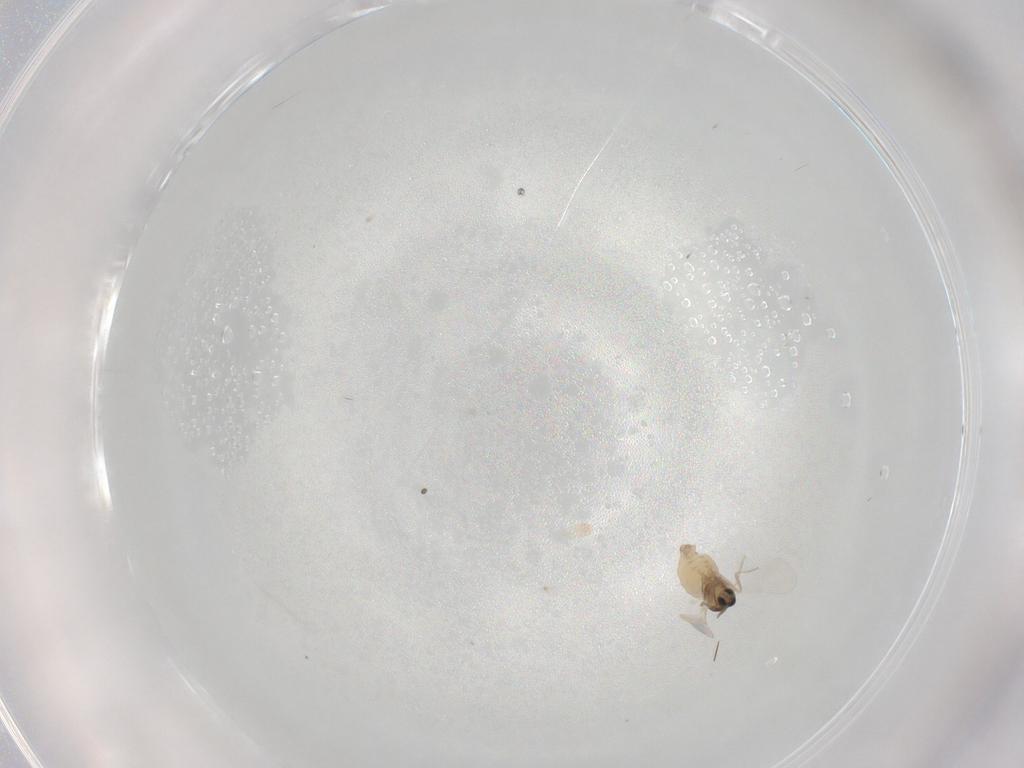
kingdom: Animalia
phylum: Arthropoda
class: Insecta
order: Diptera
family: Cecidomyiidae
